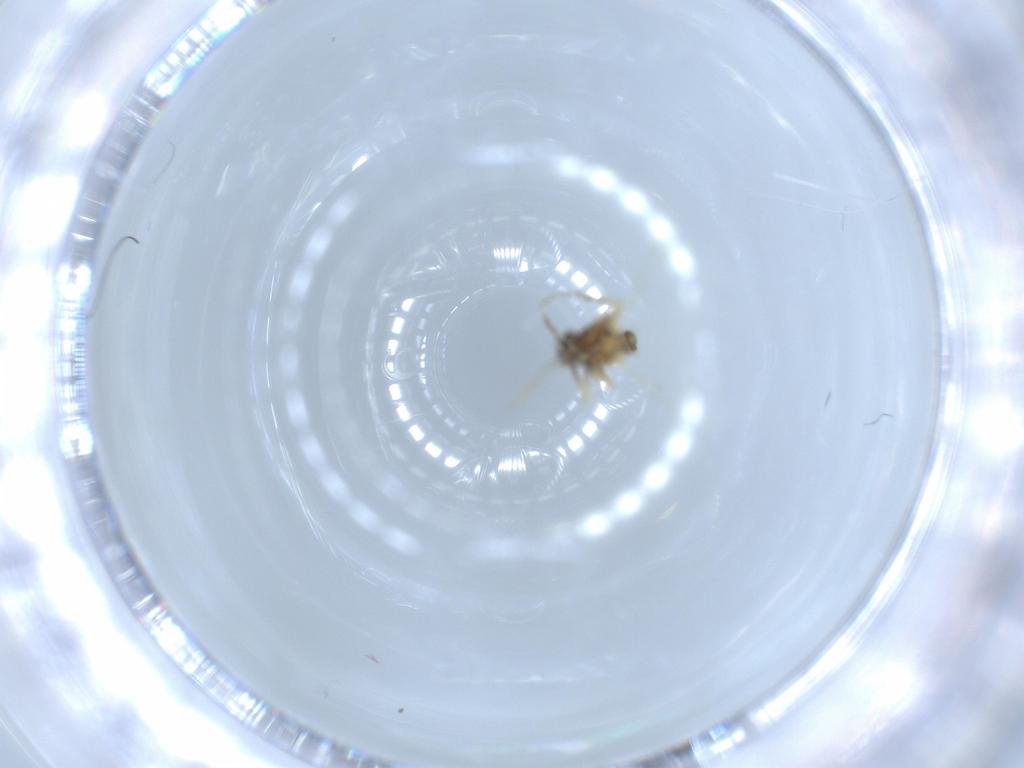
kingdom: Animalia
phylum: Arthropoda
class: Insecta
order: Diptera
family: Ceratopogonidae
